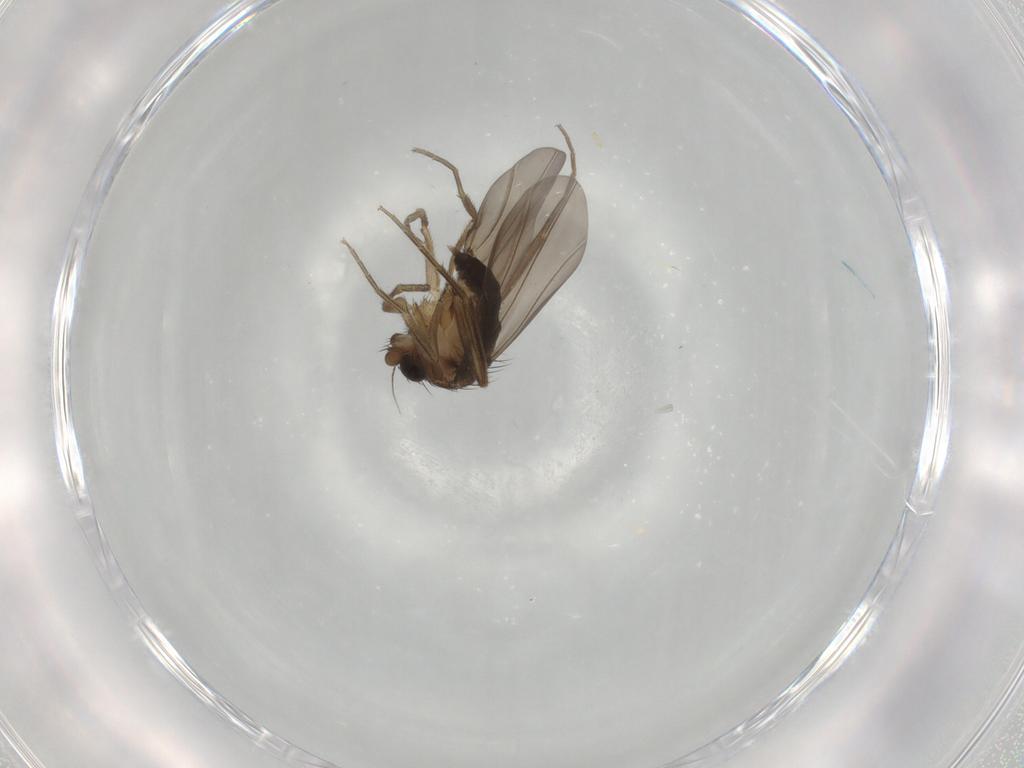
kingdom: Animalia
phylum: Arthropoda
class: Insecta
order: Diptera
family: Phoridae
